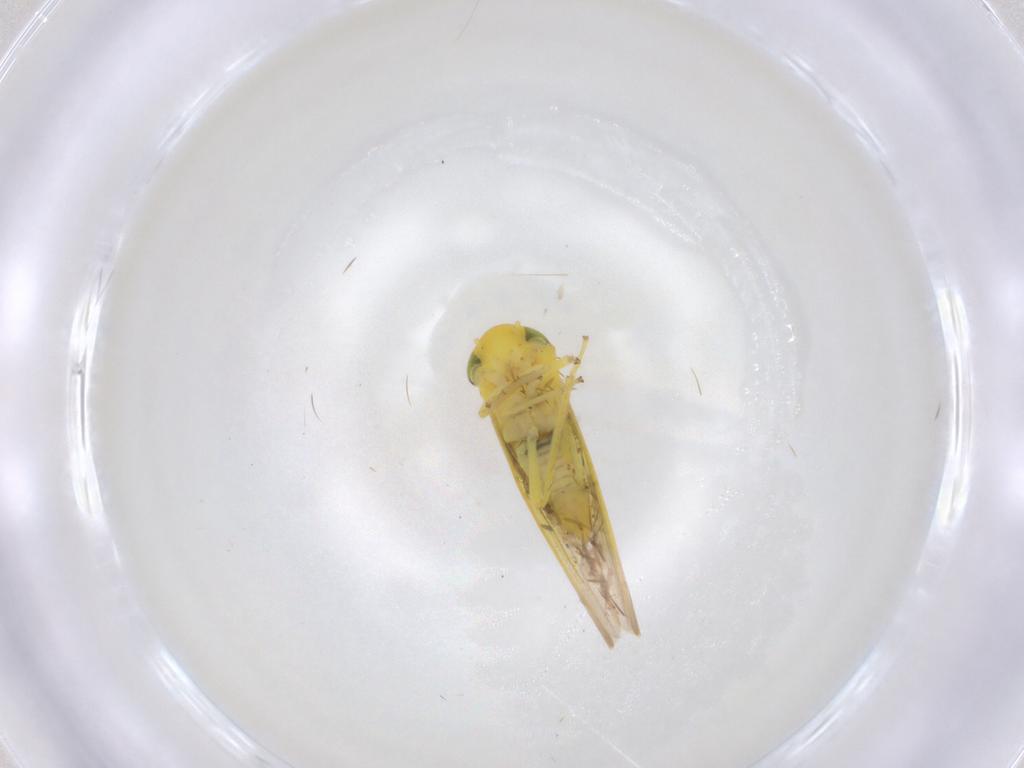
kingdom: Animalia
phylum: Arthropoda
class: Insecta
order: Hemiptera
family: Cicadellidae
